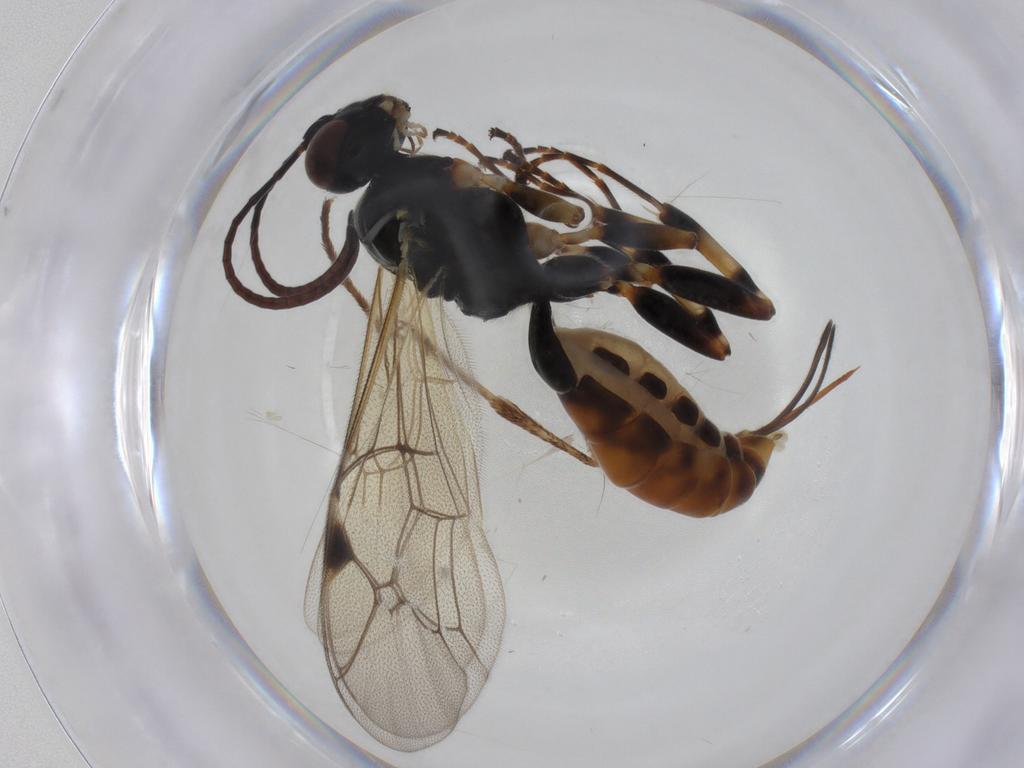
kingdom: Animalia
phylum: Arthropoda
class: Insecta
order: Hymenoptera
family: Ichneumonidae
